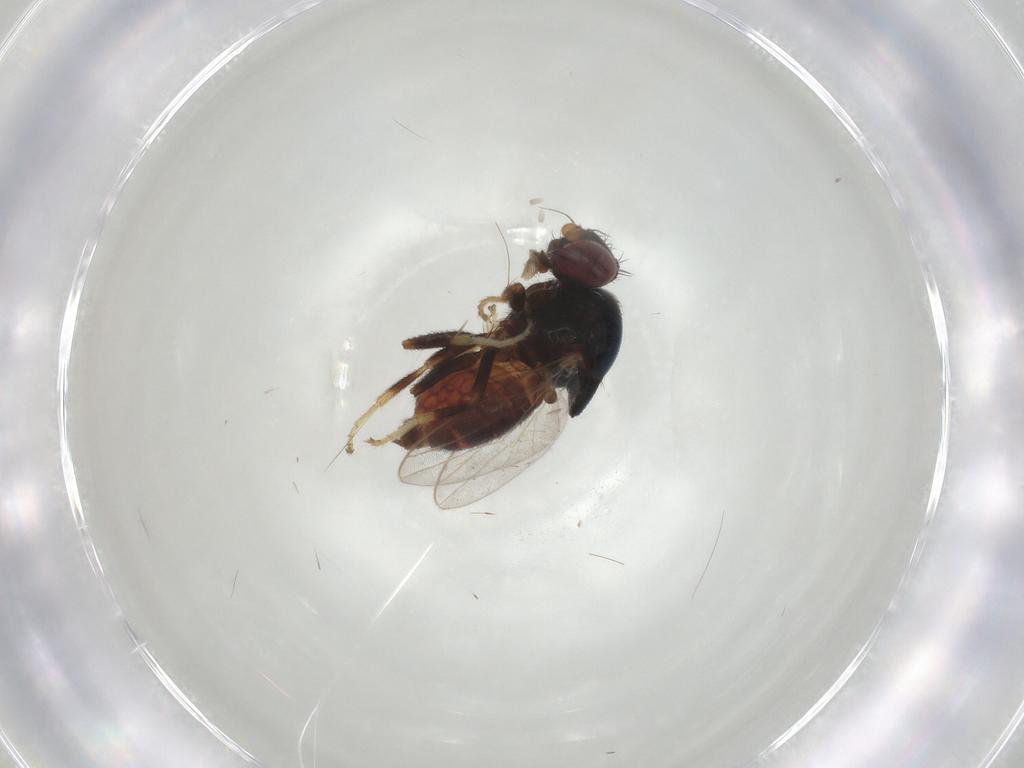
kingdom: Animalia
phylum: Arthropoda
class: Insecta
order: Diptera
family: Chloropidae
